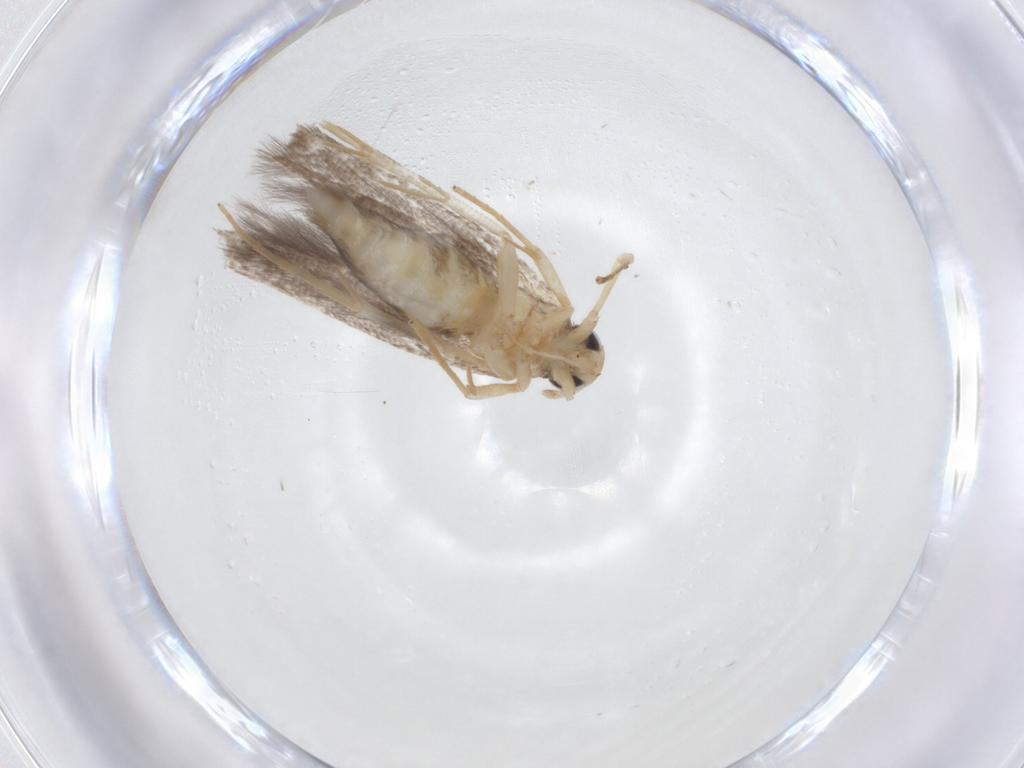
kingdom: Animalia
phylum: Arthropoda
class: Insecta
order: Lepidoptera
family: Cosmopterigidae
